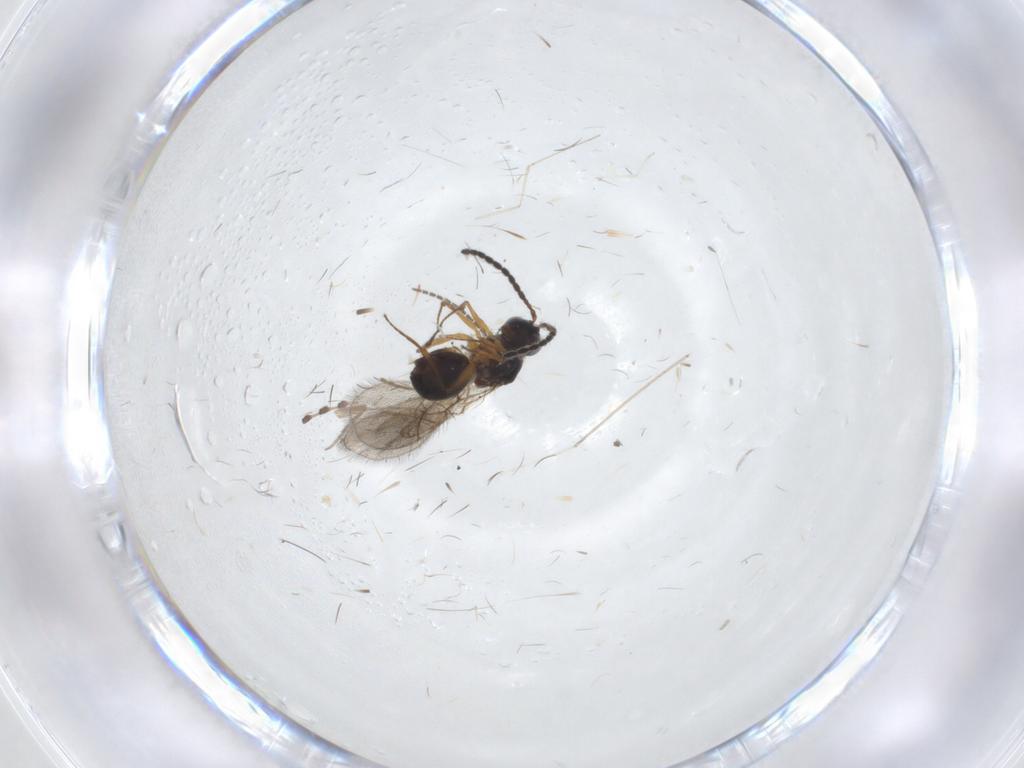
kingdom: Animalia
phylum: Arthropoda
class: Insecta
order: Hymenoptera
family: Figitidae
